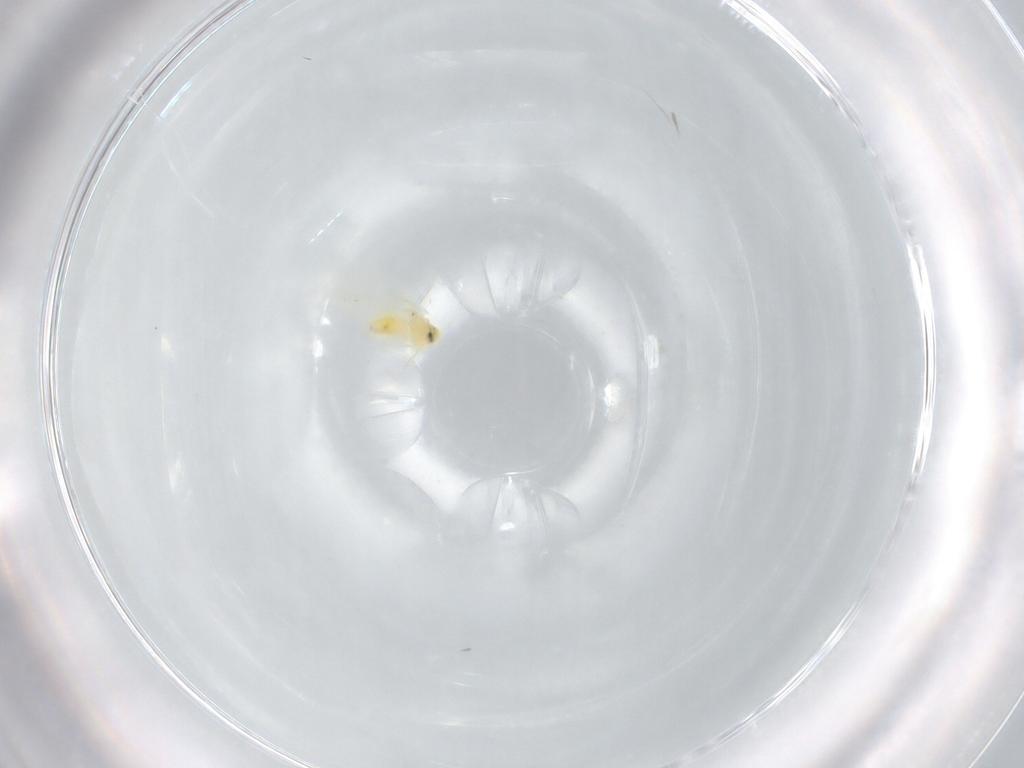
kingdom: Animalia
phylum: Arthropoda
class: Insecta
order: Hemiptera
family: Aleyrodidae
